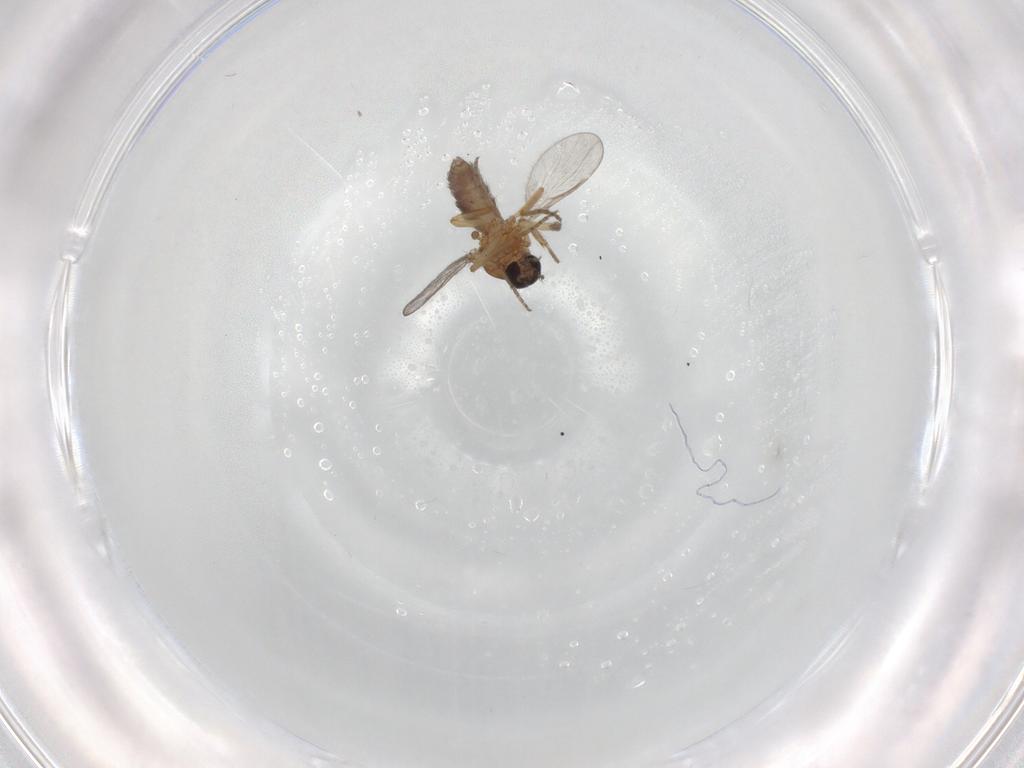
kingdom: Animalia
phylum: Arthropoda
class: Insecta
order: Diptera
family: Ceratopogonidae
